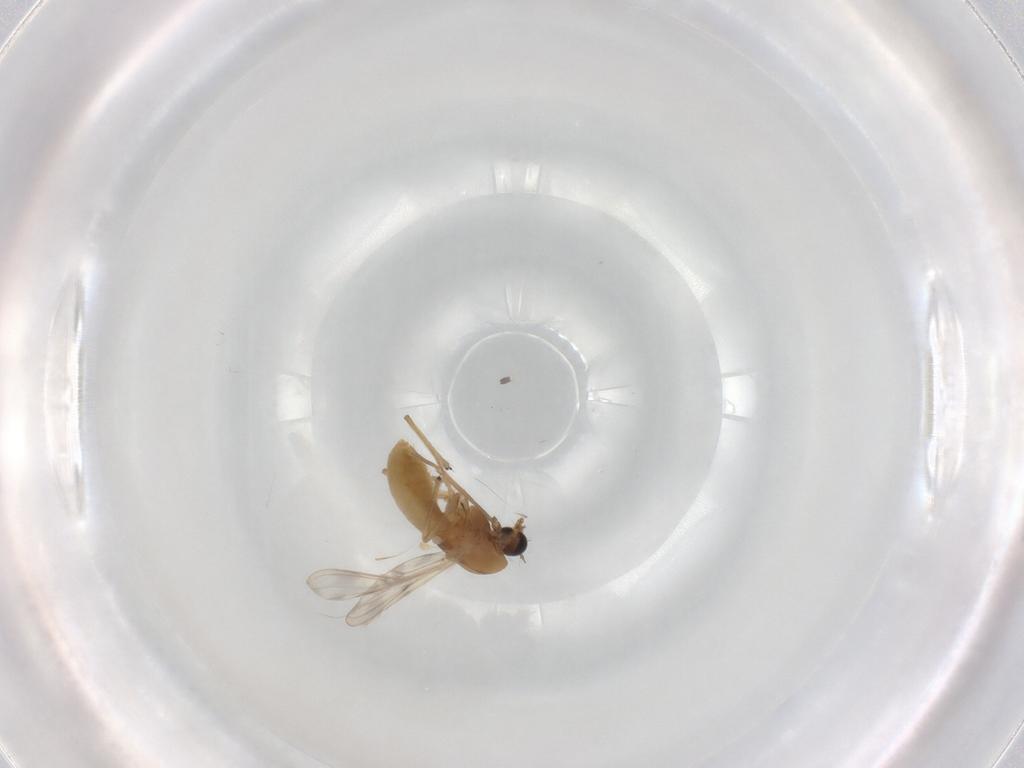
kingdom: Animalia
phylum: Arthropoda
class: Insecta
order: Diptera
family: Chironomidae
